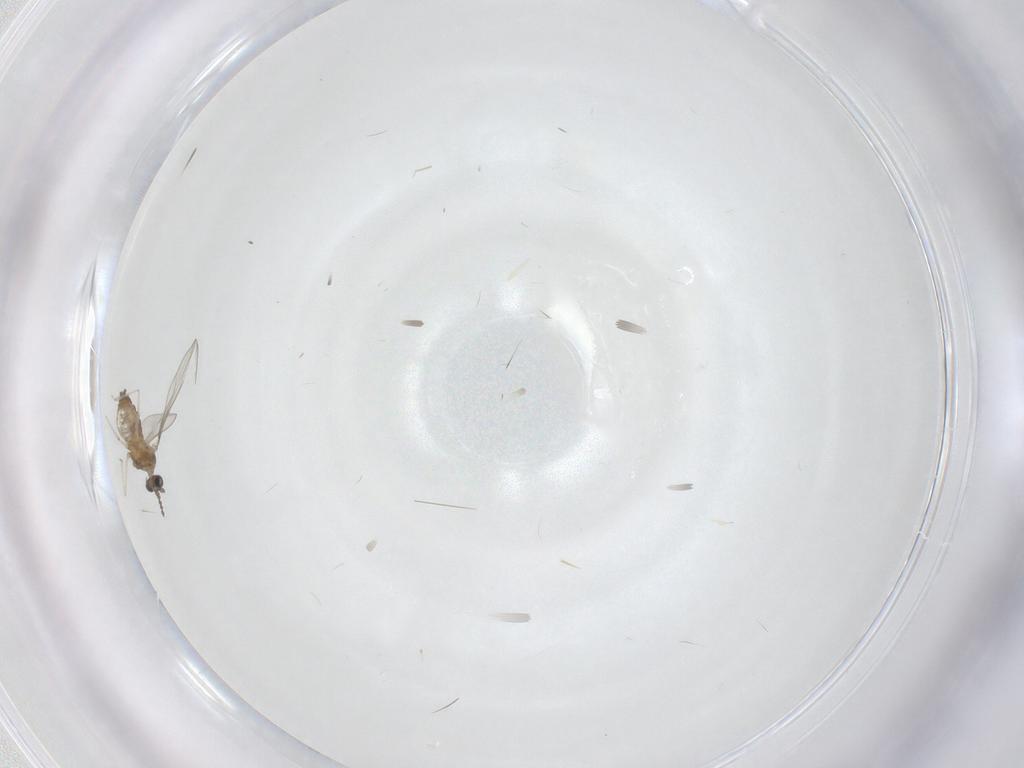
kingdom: Animalia
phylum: Arthropoda
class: Insecta
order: Diptera
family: Cecidomyiidae
